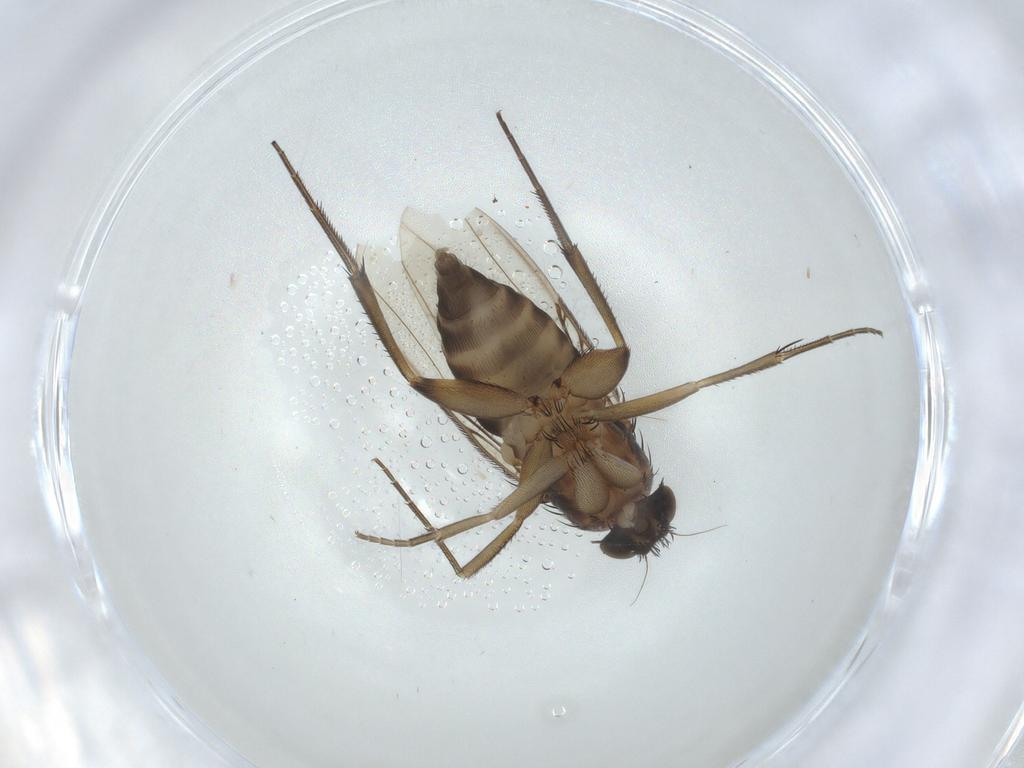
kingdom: Animalia
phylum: Arthropoda
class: Insecta
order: Diptera
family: Phoridae
